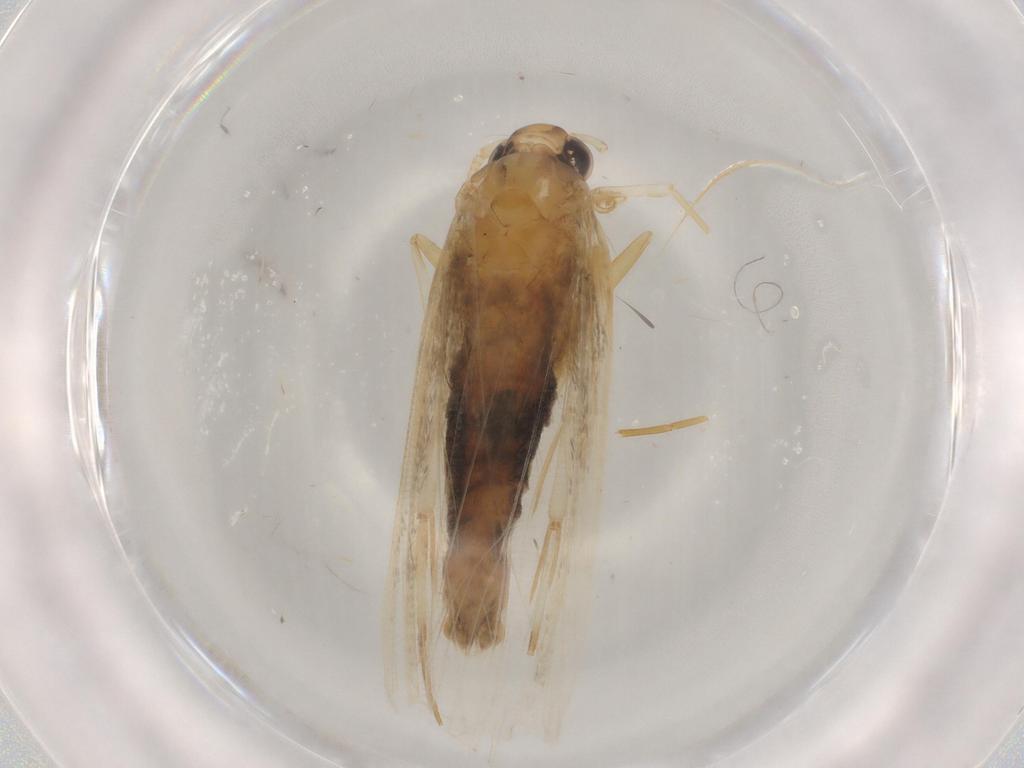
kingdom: Animalia
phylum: Arthropoda
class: Insecta
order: Lepidoptera
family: Cosmopterigidae
